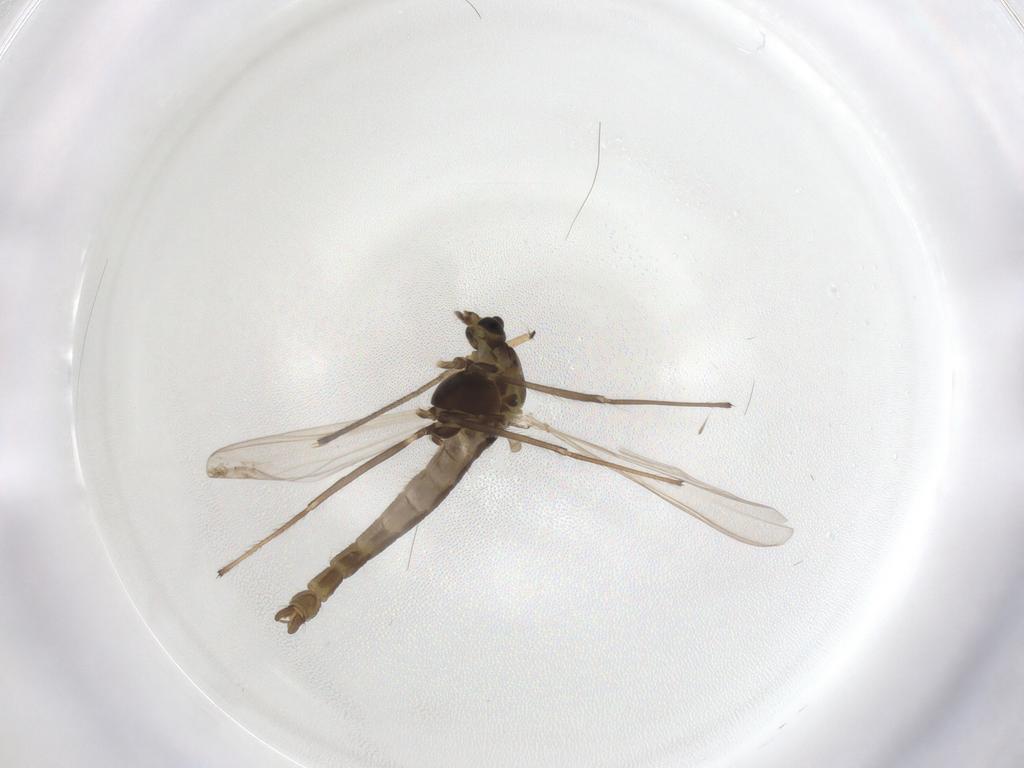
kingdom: Animalia
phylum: Arthropoda
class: Insecta
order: Diptera
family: Chironomidae
